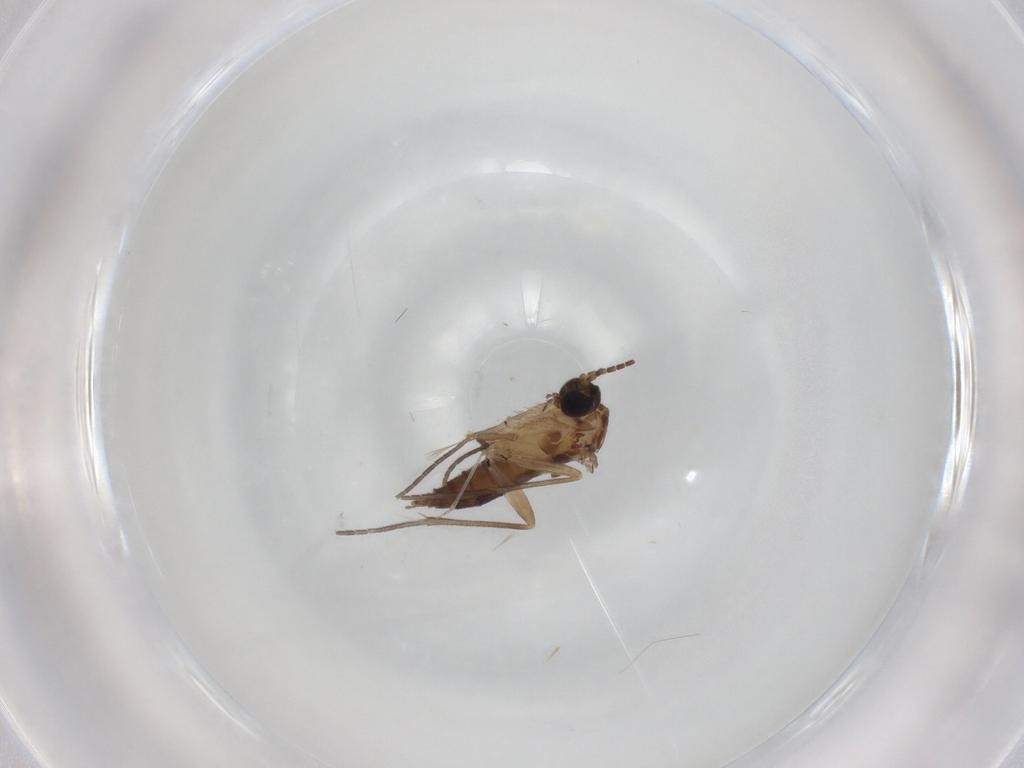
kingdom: Animalia
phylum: Arthropoda
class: Insecta
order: Diptera
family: Sciaridae
